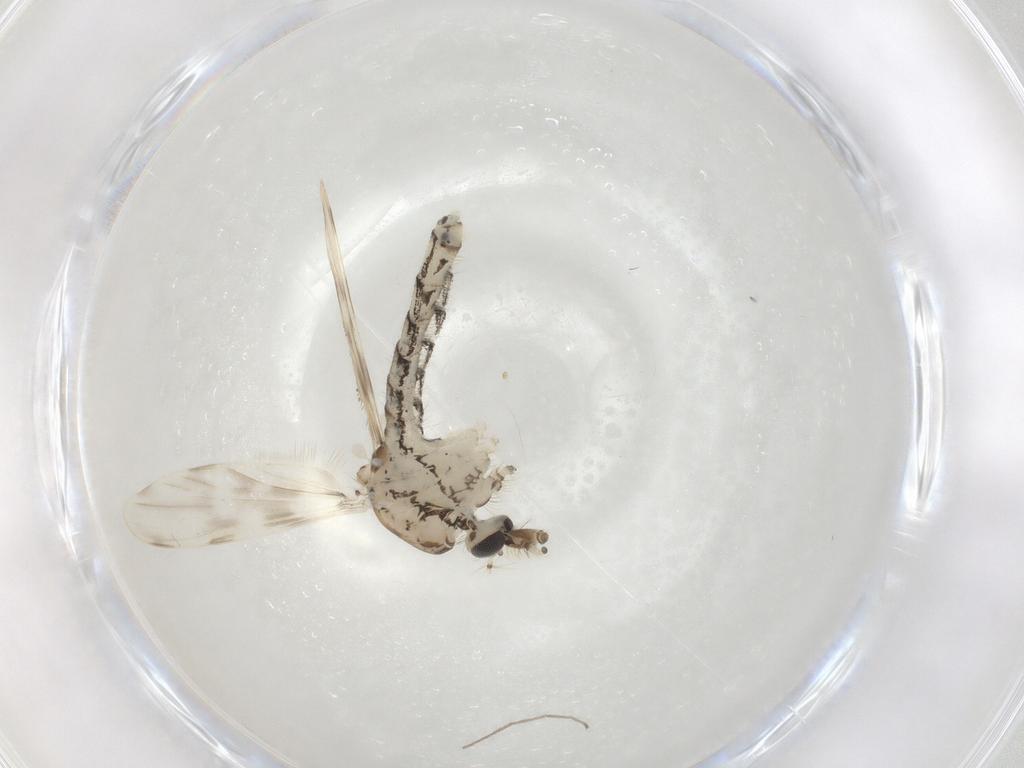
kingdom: Animalia
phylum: Arthropoda
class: Insecta
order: Diptera
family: Chaoboridae
